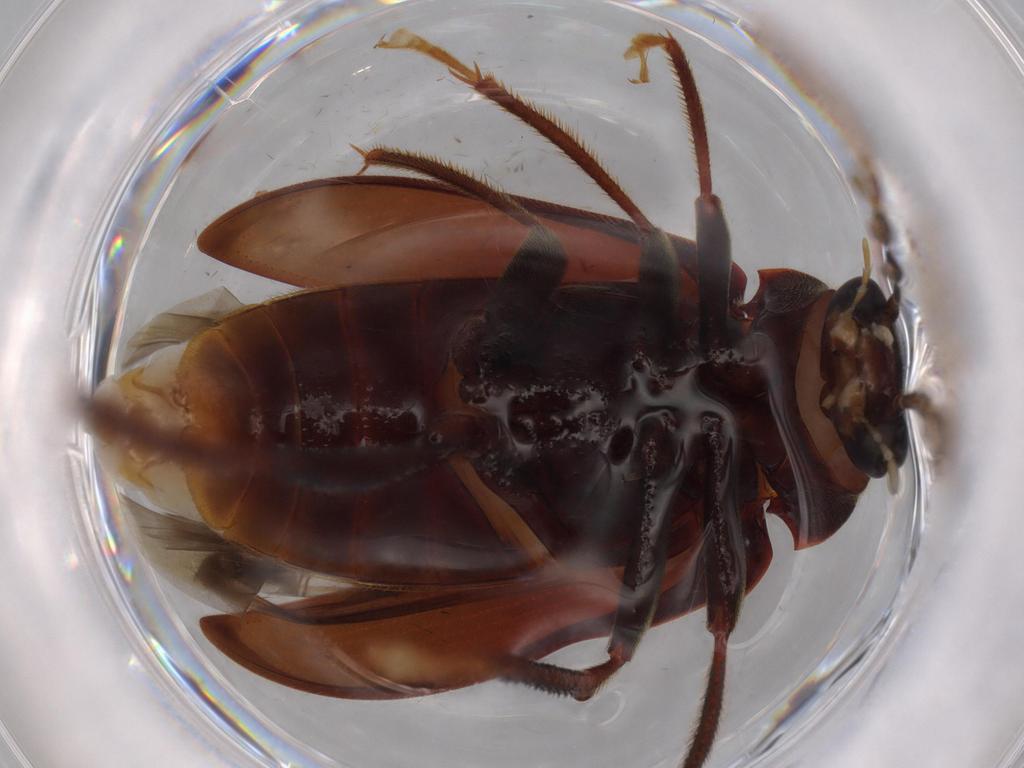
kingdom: Animalia
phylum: Arthropoda
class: Insecta
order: Coleoptera
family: Ptilodactylidae
